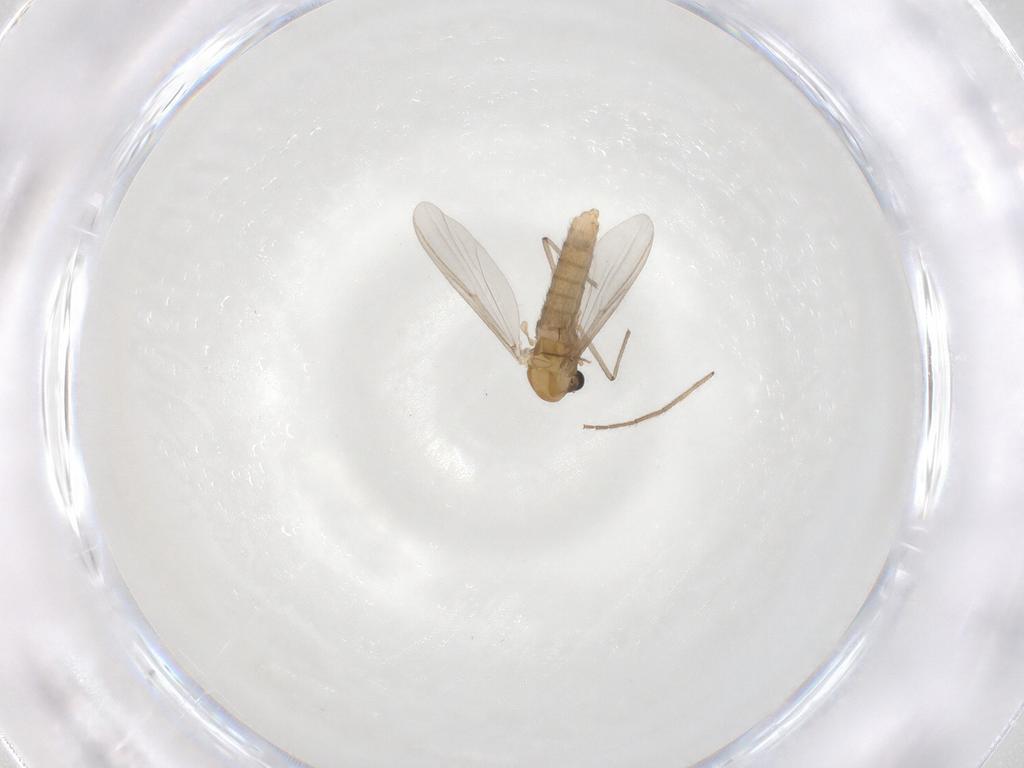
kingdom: Animalia
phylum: Arthropoda
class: Insecta
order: Diptera
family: Chironomidae
